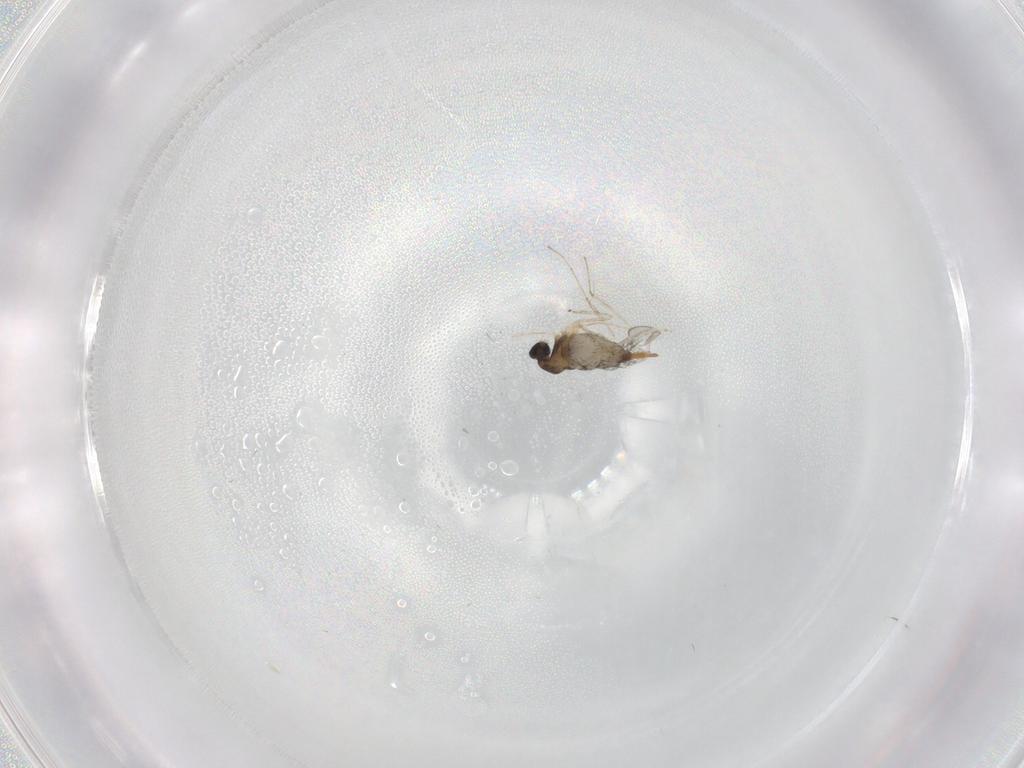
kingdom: Animalia
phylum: Arthropoda
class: Insecta
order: Diptera
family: Cecidomyiidae
